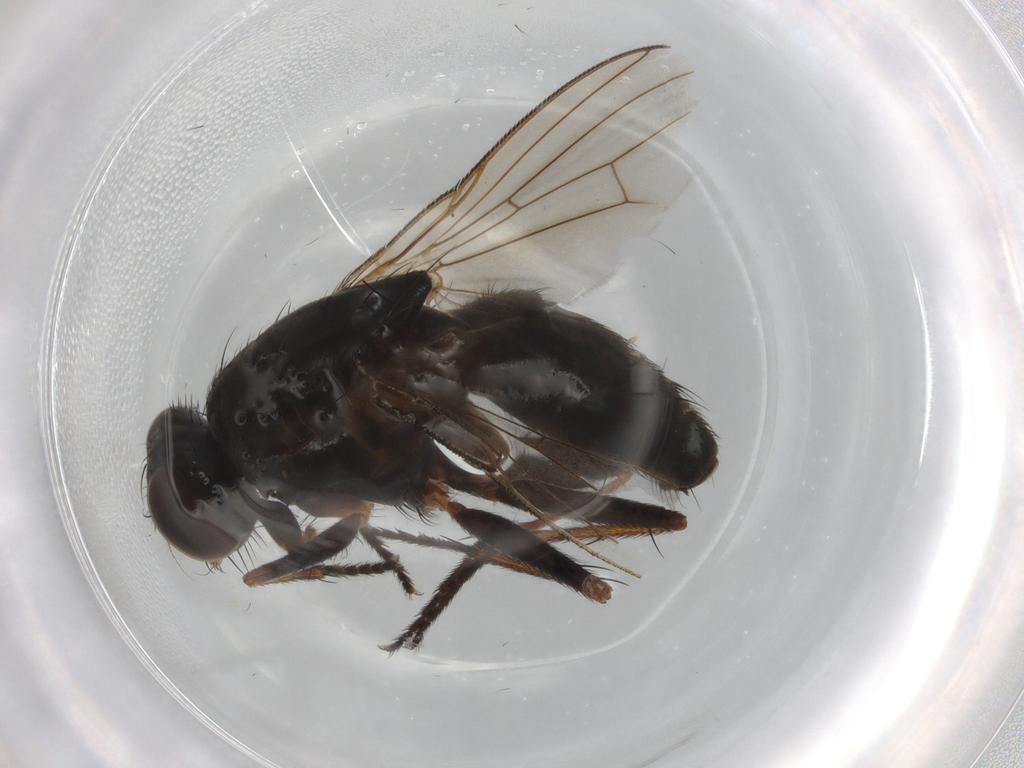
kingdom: Animalia
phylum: Arthropoda
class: Insecta
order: Diptera
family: Muscidae
